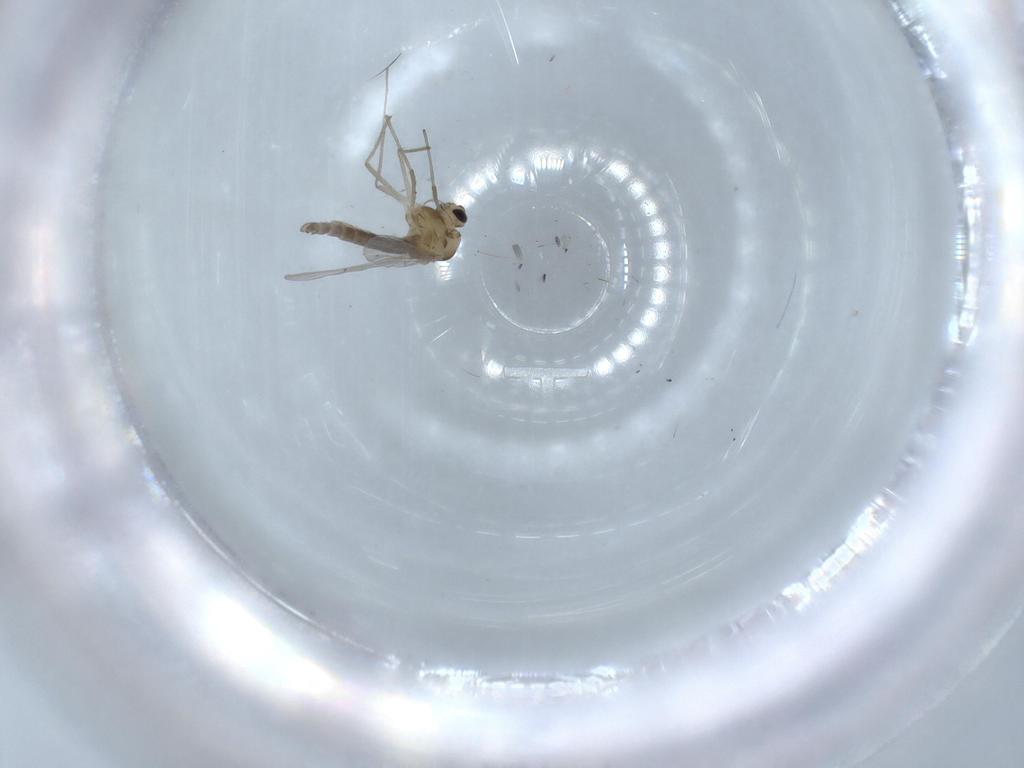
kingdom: Animalia
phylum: Arthropoda
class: Insecta
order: Diptera
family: Chironomidae
